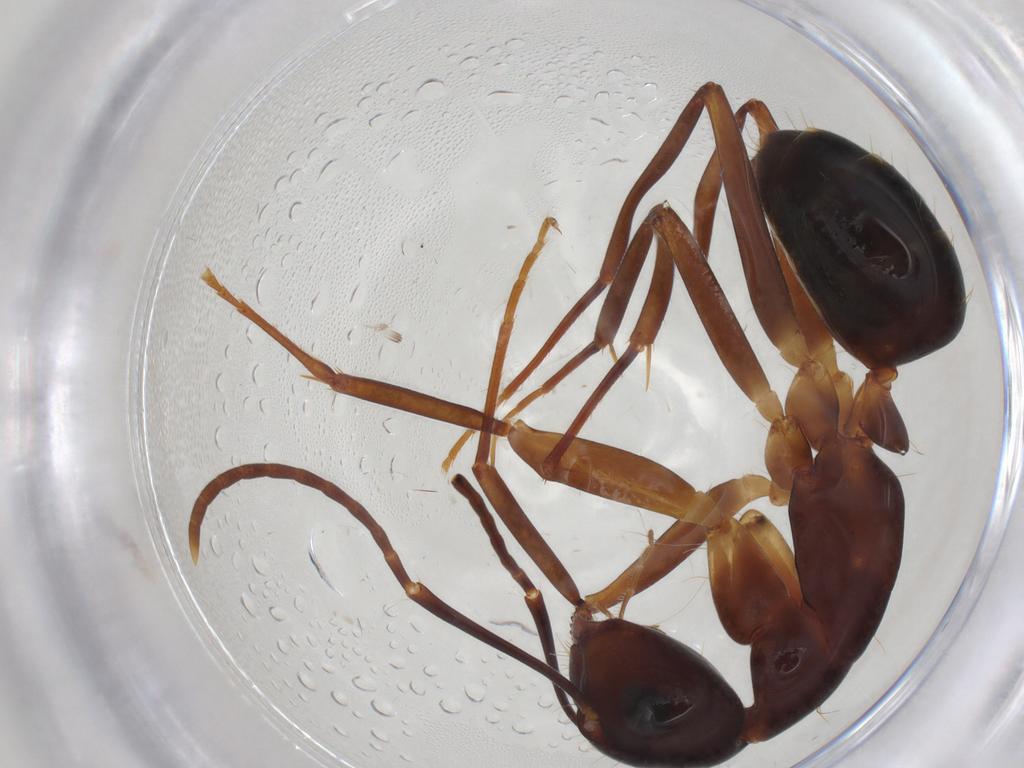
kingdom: Animalia
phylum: Arthropoda
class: Insecta
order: Hymenoptera
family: Formicidae
